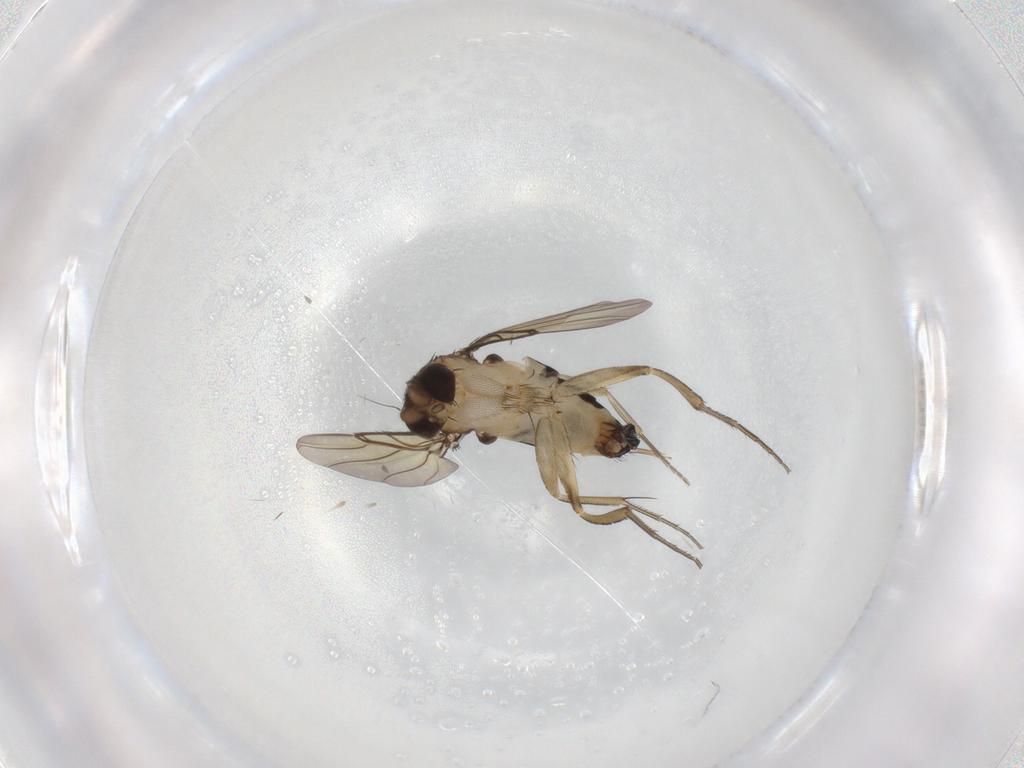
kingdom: Animalia
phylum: Arthropoda
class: Insecta
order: Diptera
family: Phoridae
